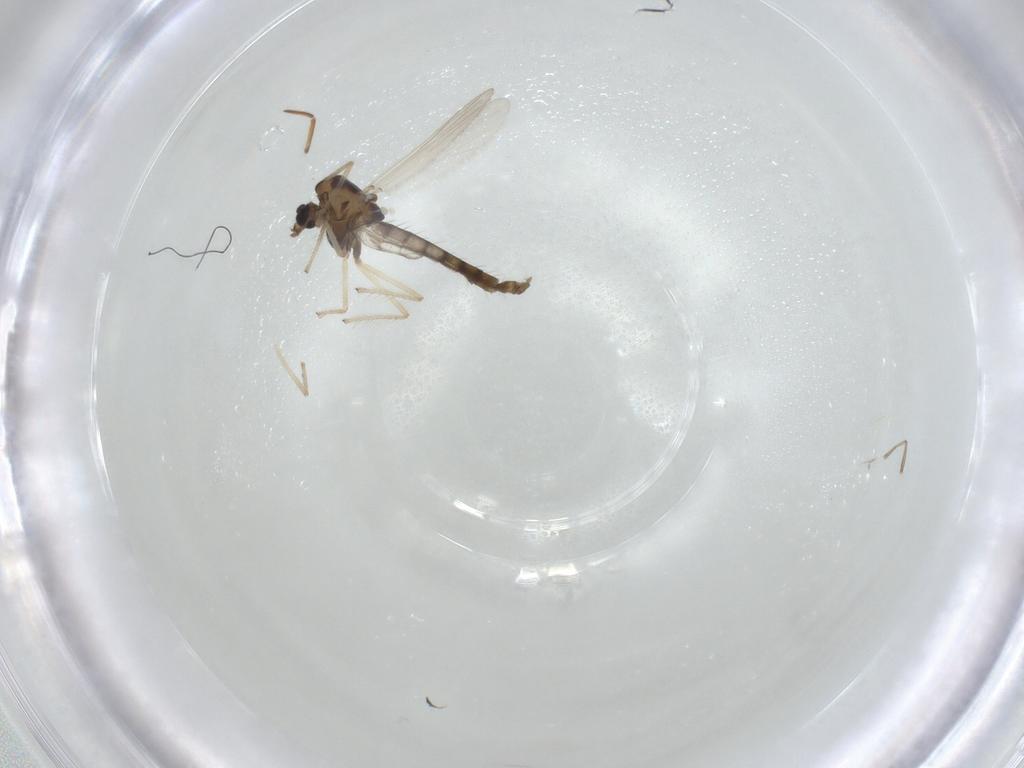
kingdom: Animalia
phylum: Arthropoda
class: Insecta
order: Diptera
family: Chironomidae
